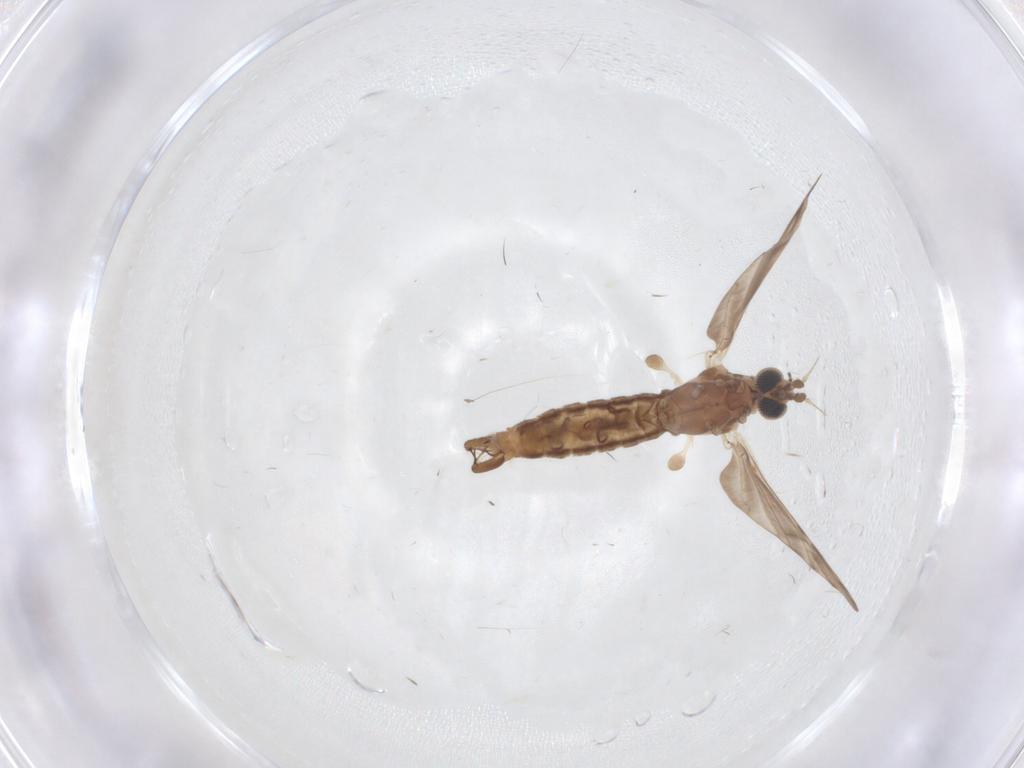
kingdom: Animalia
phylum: Arthropoda
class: Insecta
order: Diptera
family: Limoniidae
